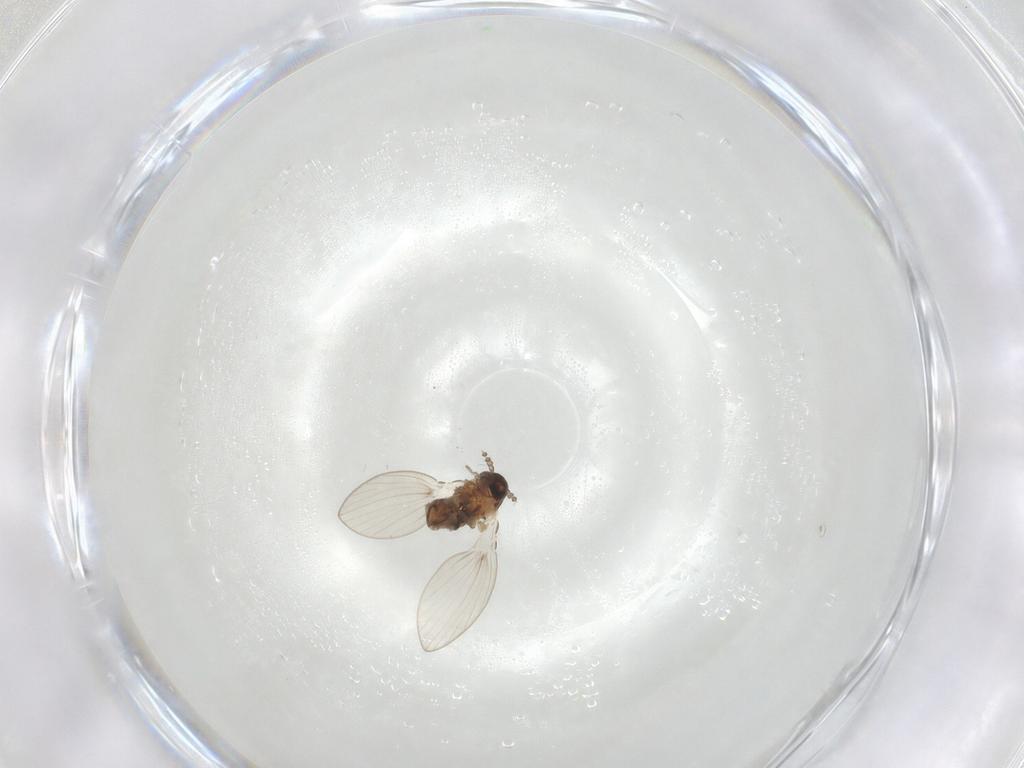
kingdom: Animalia
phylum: Arthropoda
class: Insecta
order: Diptera
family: Psychodidae
